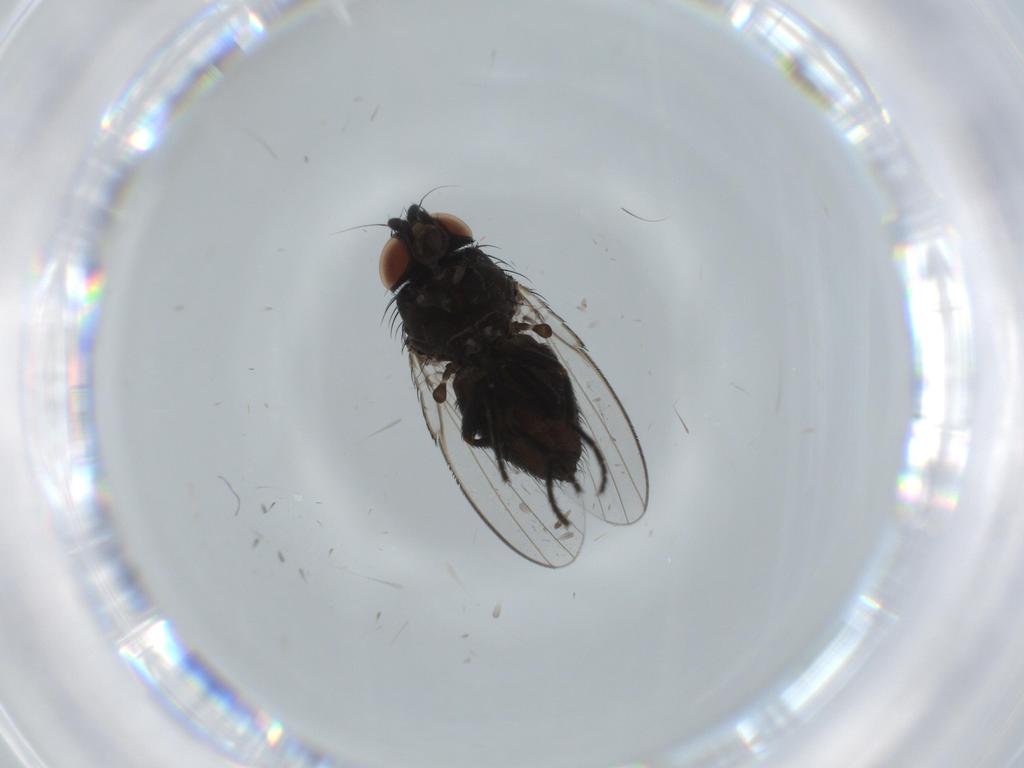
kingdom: Animalia
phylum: Arthropoda
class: Insecta
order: Diptera
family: Milichiidae
